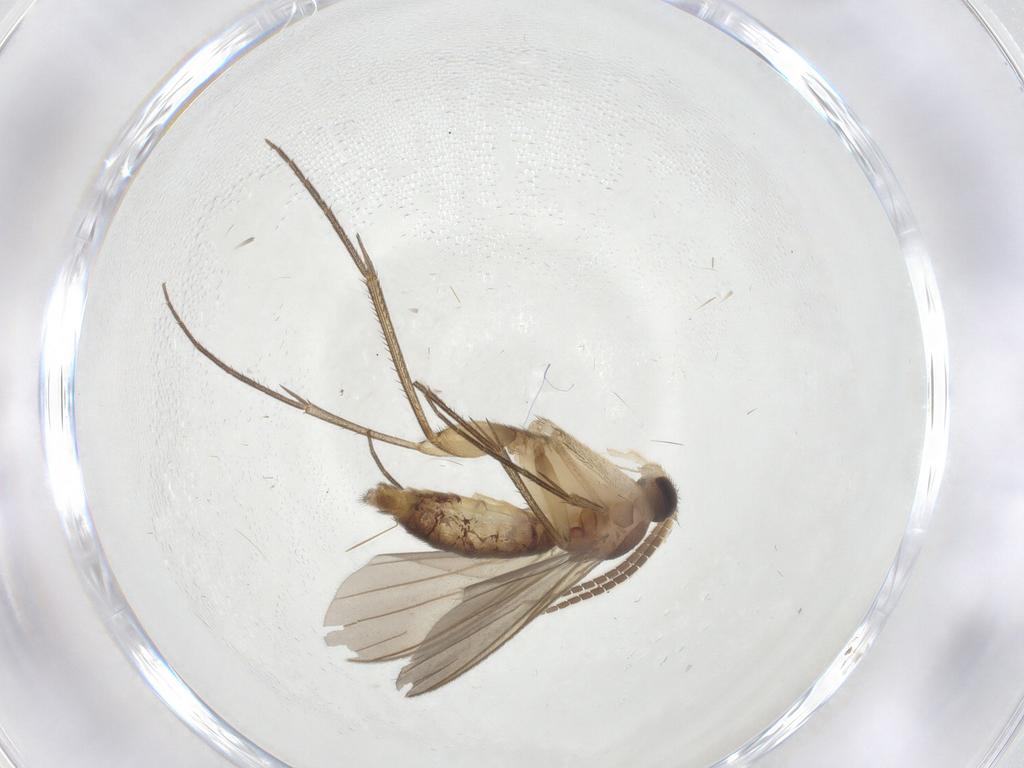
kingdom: Animalia
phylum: Arthropoda
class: Insecta
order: Diptera
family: Mycetophilidae
